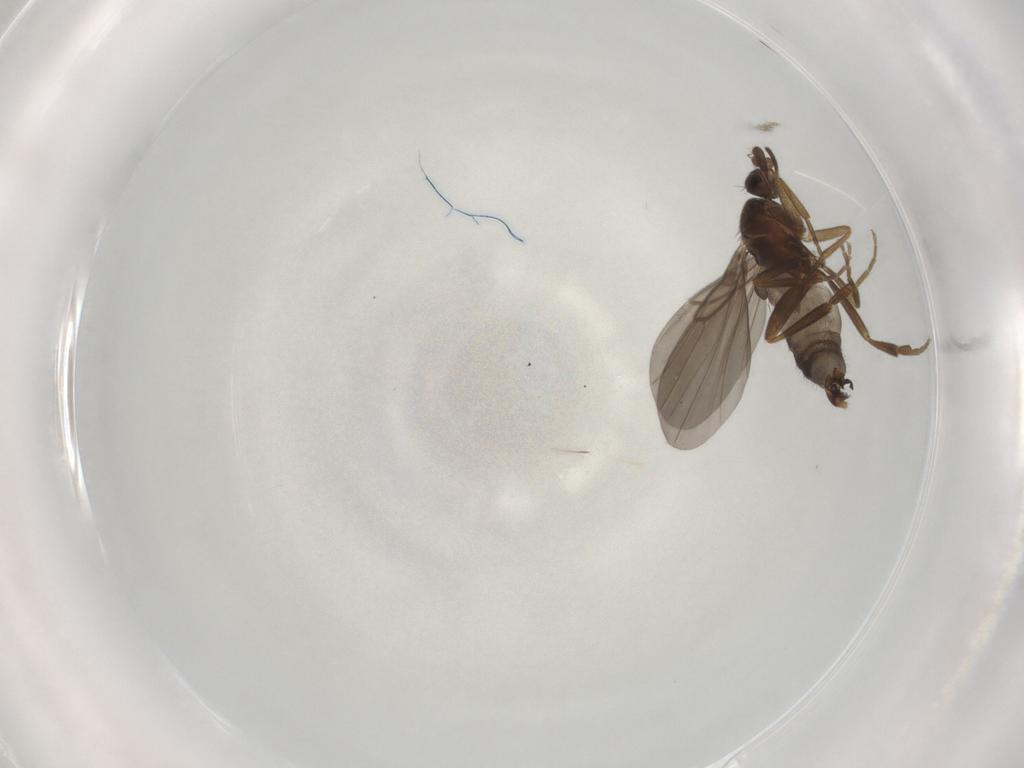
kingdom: Animalia
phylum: Arthropoda
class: Insecta
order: Diptera
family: Phoridae
